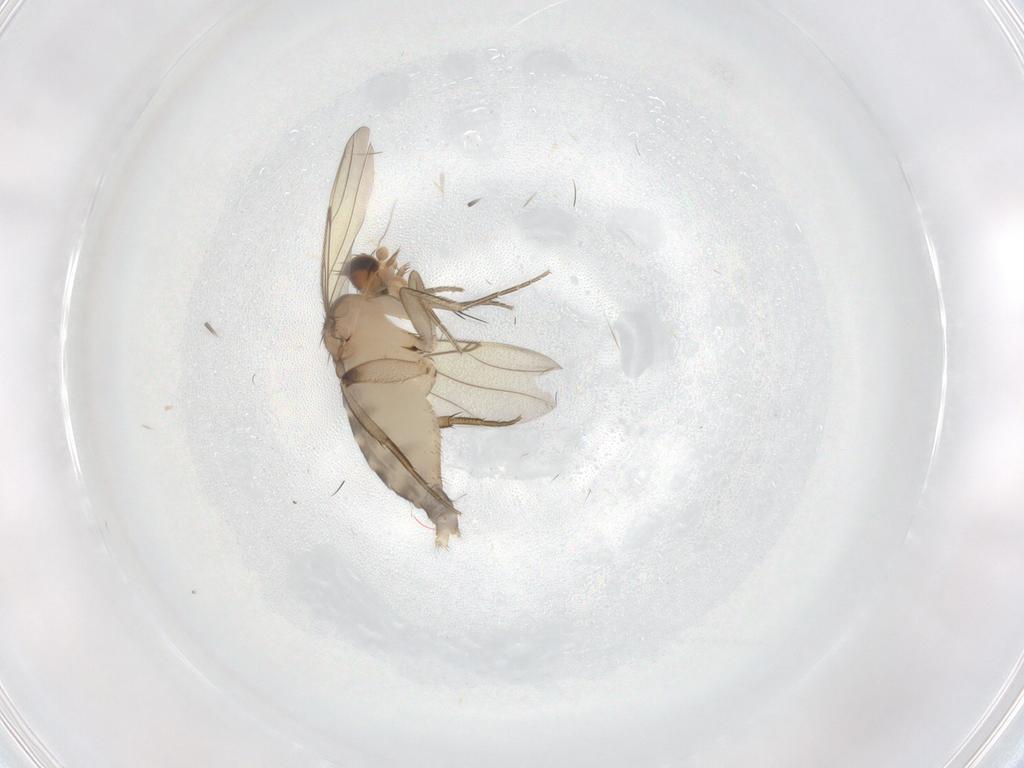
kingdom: Animalia
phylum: Arthropoda
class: Insecta
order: Diptera
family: Phoridae
